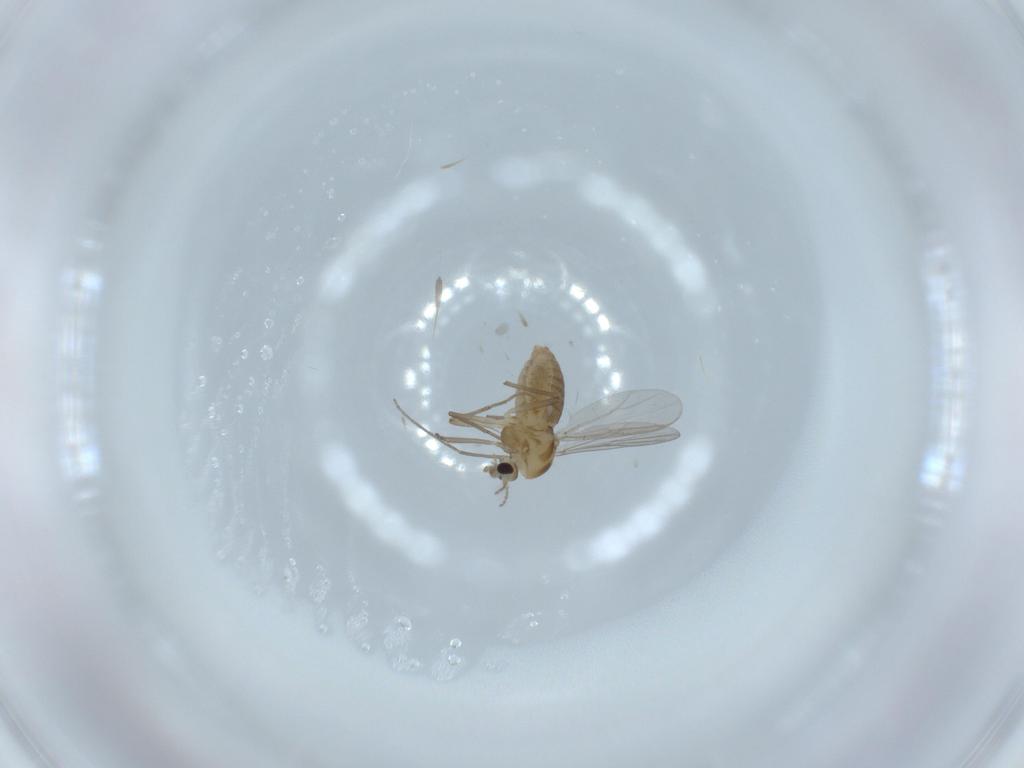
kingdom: Animalia
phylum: Arthropoda
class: Insecta
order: Diptera
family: Chironomidae
